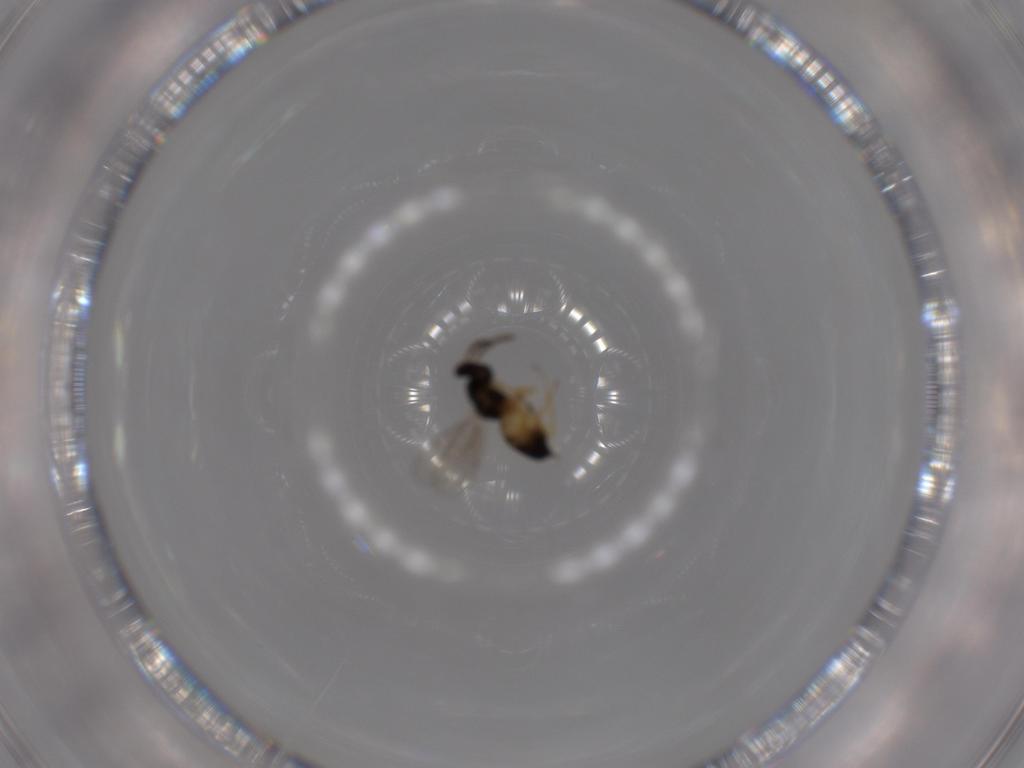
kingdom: Animalia
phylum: Arthropoda
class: Insecta
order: Hymenoptera
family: Eulophidae
